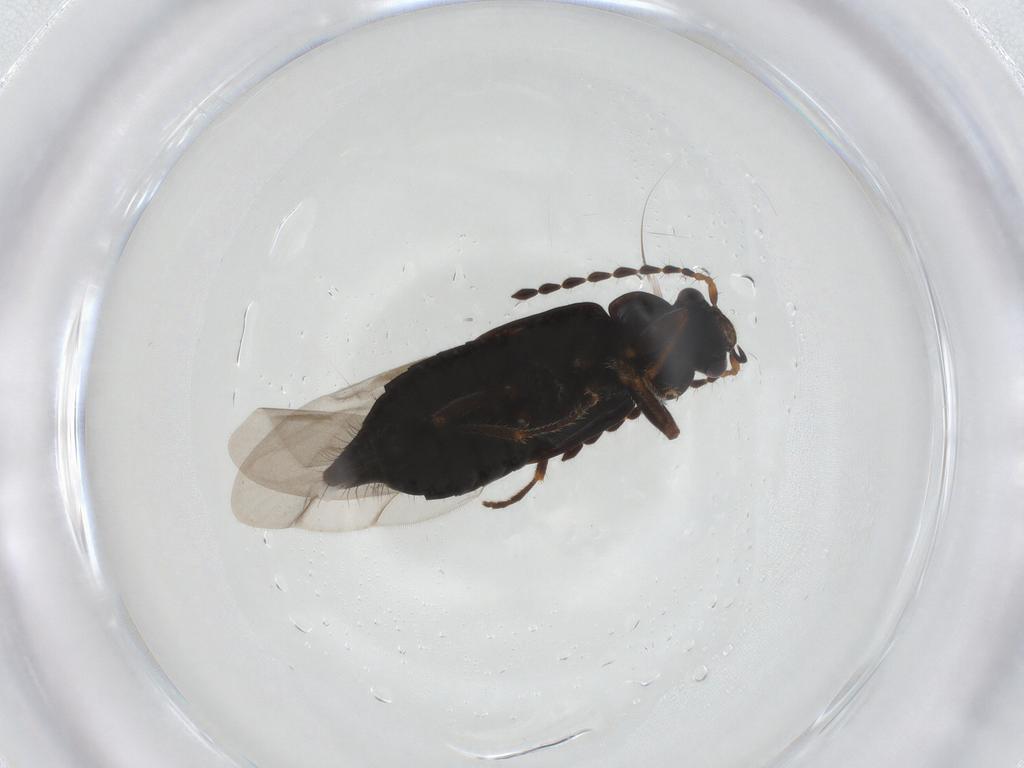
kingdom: Animalia
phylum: Arthropoda
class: Insecta
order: Coleoptera
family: Staphylinidae
